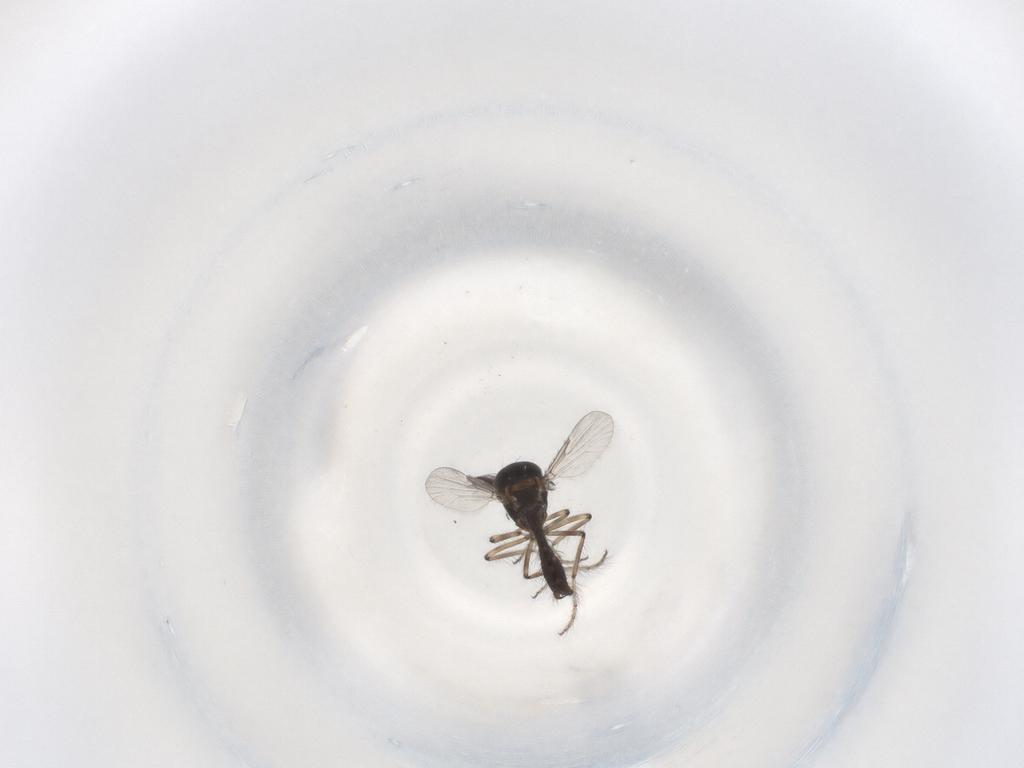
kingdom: Animalia
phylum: Arthropoda
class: Insecta
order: Diptera
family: Ceratopogonidae
